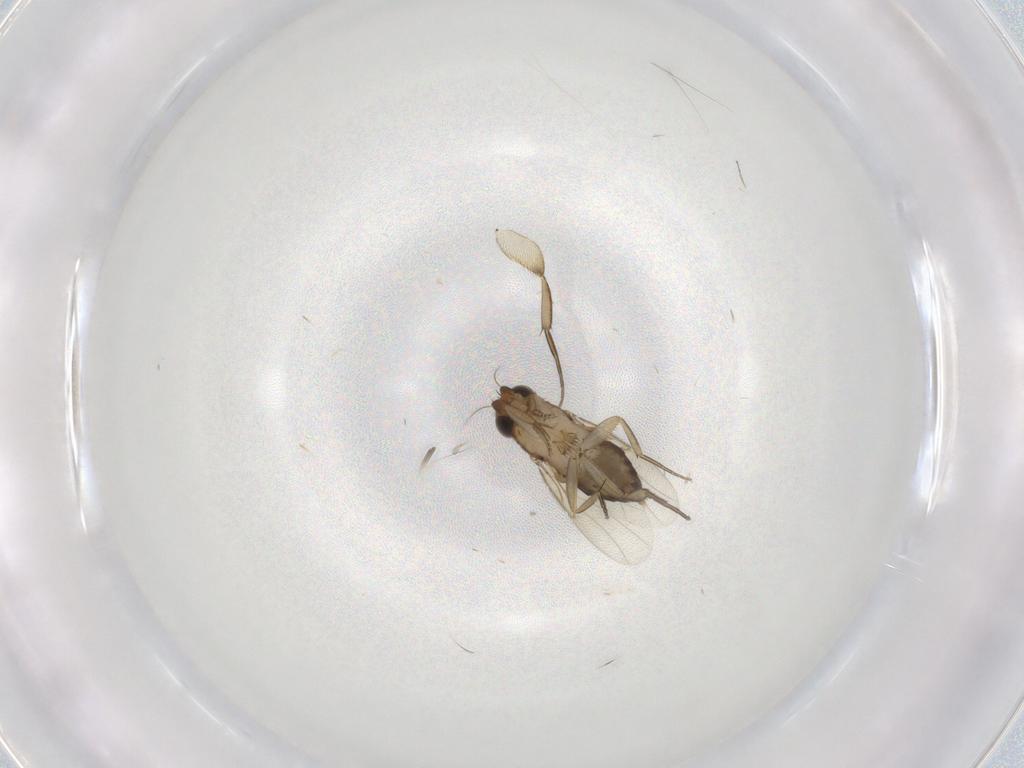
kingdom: Animalia
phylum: Arthropoda
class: Insecta
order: Diptera
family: Phoridae
